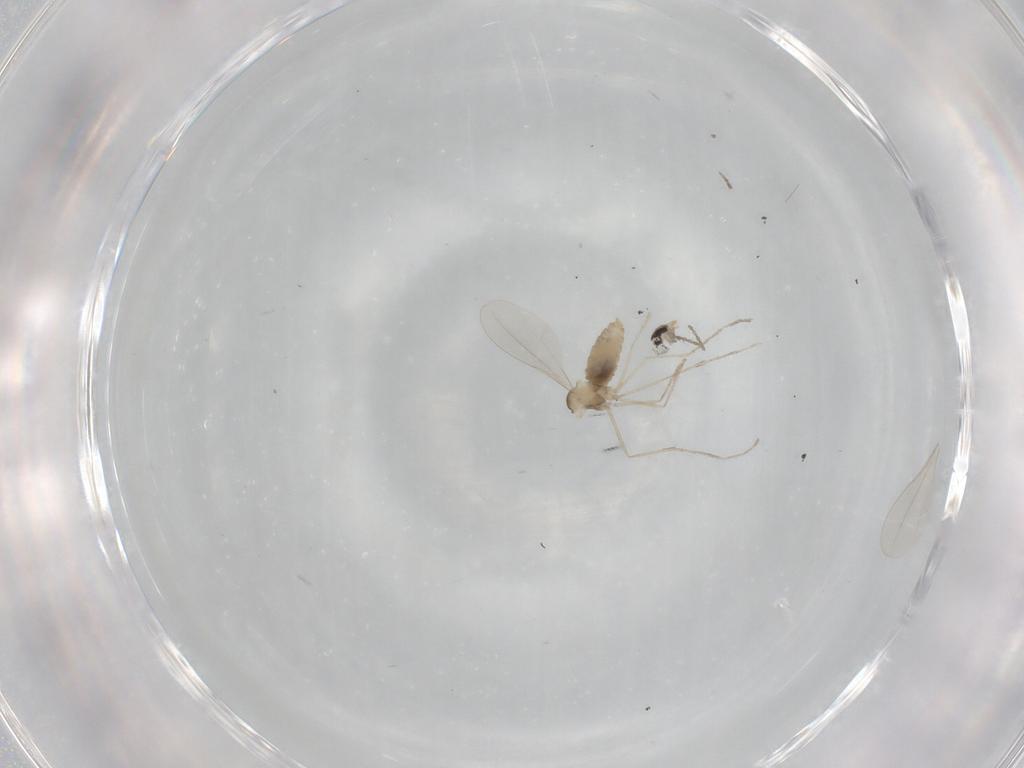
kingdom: Animalia
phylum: Arthropoda
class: Insecta
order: Diptera
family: Cecidomyiidae
